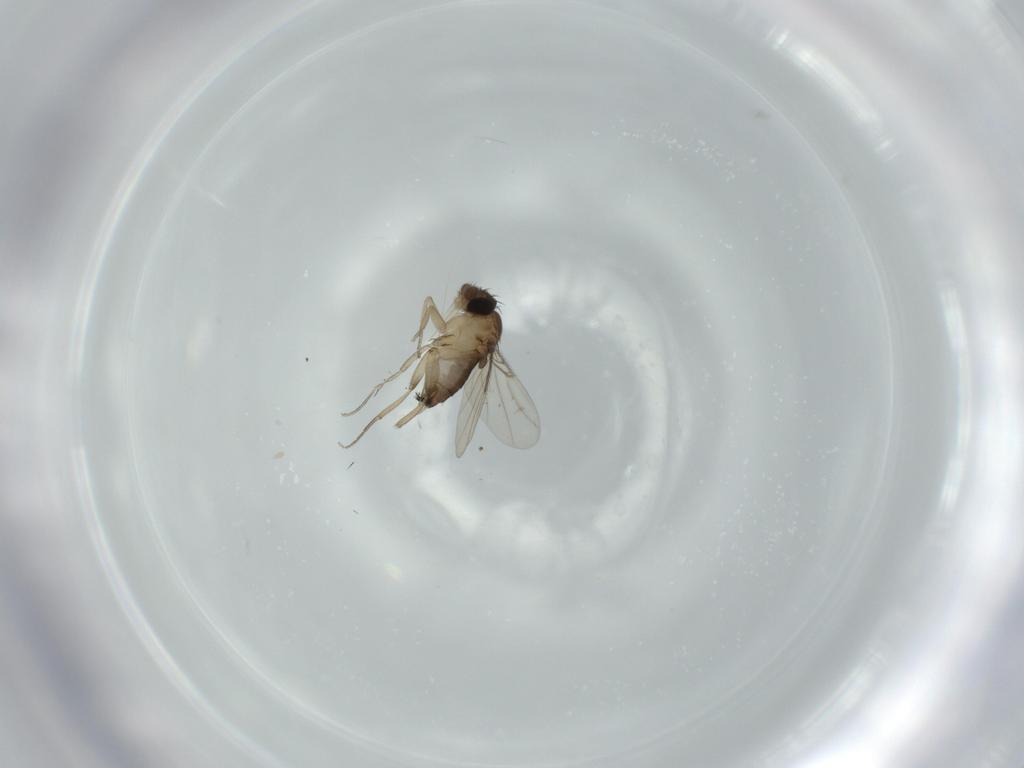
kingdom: Animalia
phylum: Arthropoda
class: Insecta
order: Diptera
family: Phoridae
